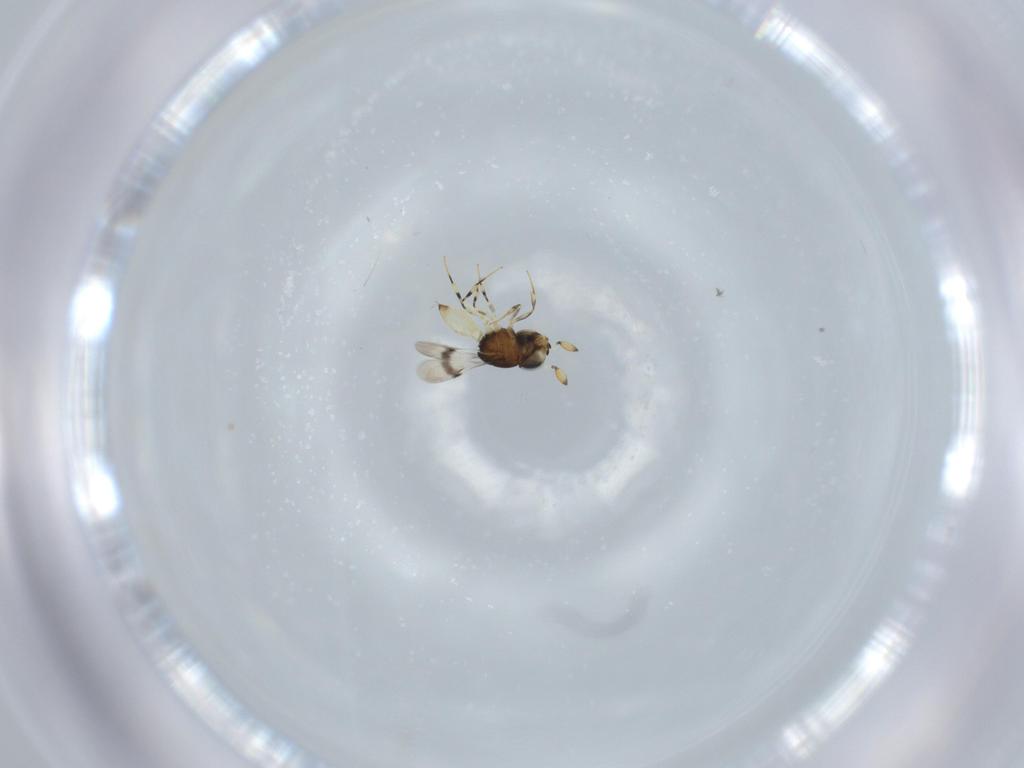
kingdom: Animalia
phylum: Arthropoda
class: Insecta
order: Hymenoptera
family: Scelionidae
